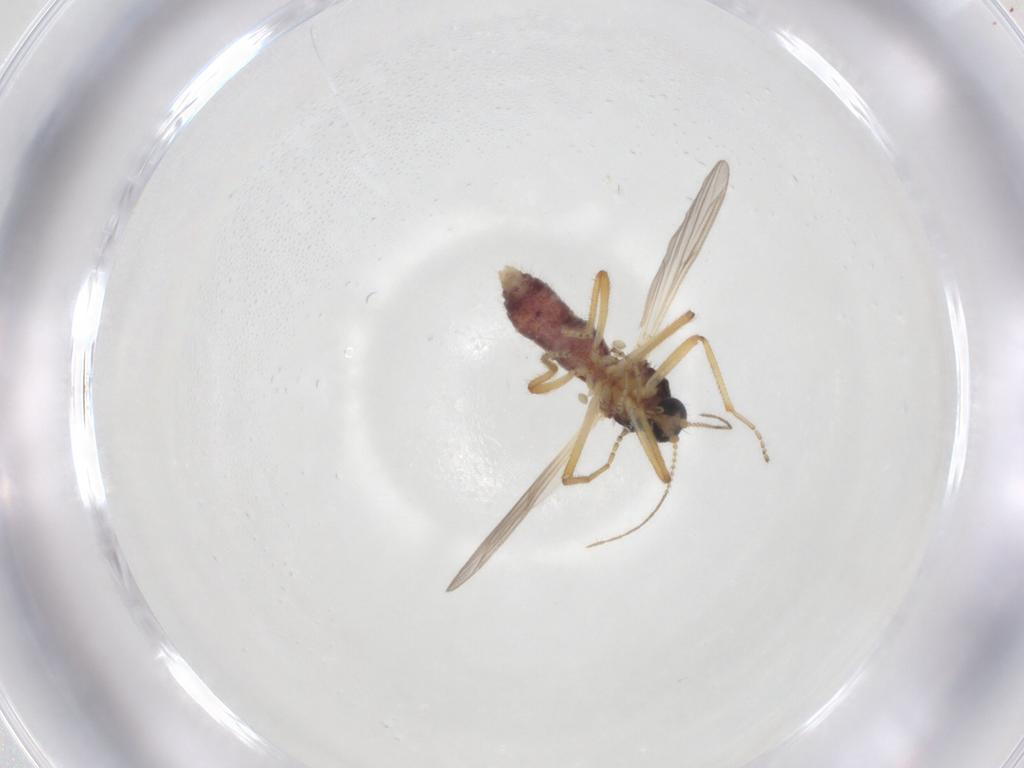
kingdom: Animalia
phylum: Arthropoda
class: Insecta
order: Diptera
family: Ceratopogonidae
